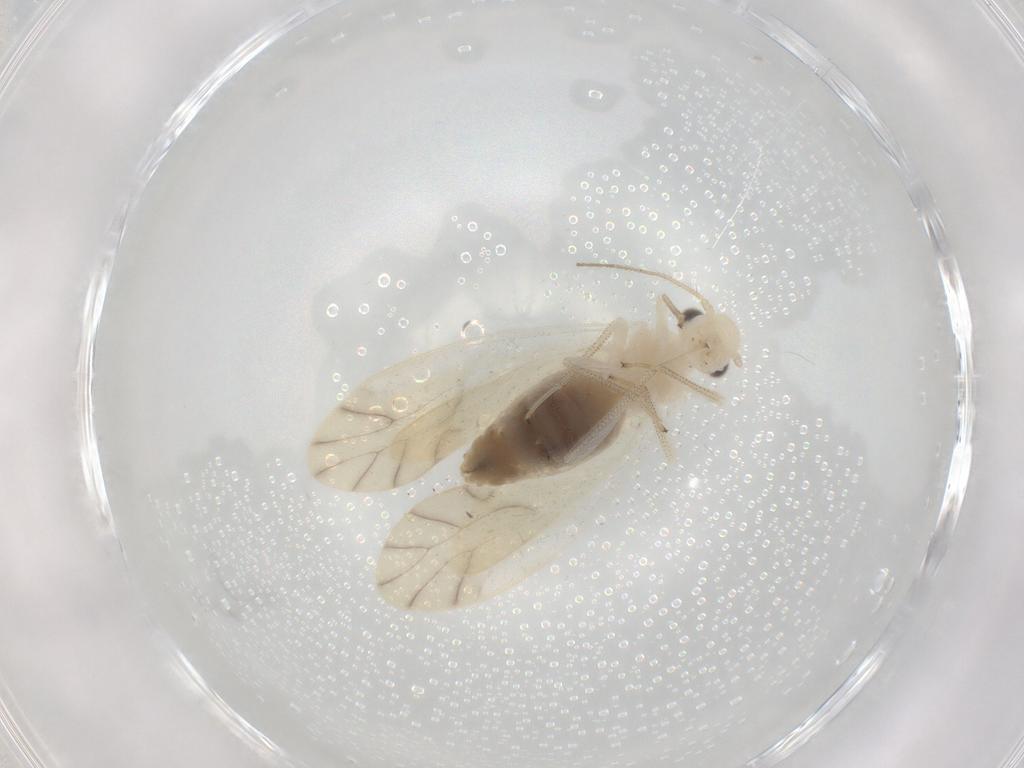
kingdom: Animalia
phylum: Arthropoda
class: Insecta
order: Psocodea
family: Caeciliusidae
